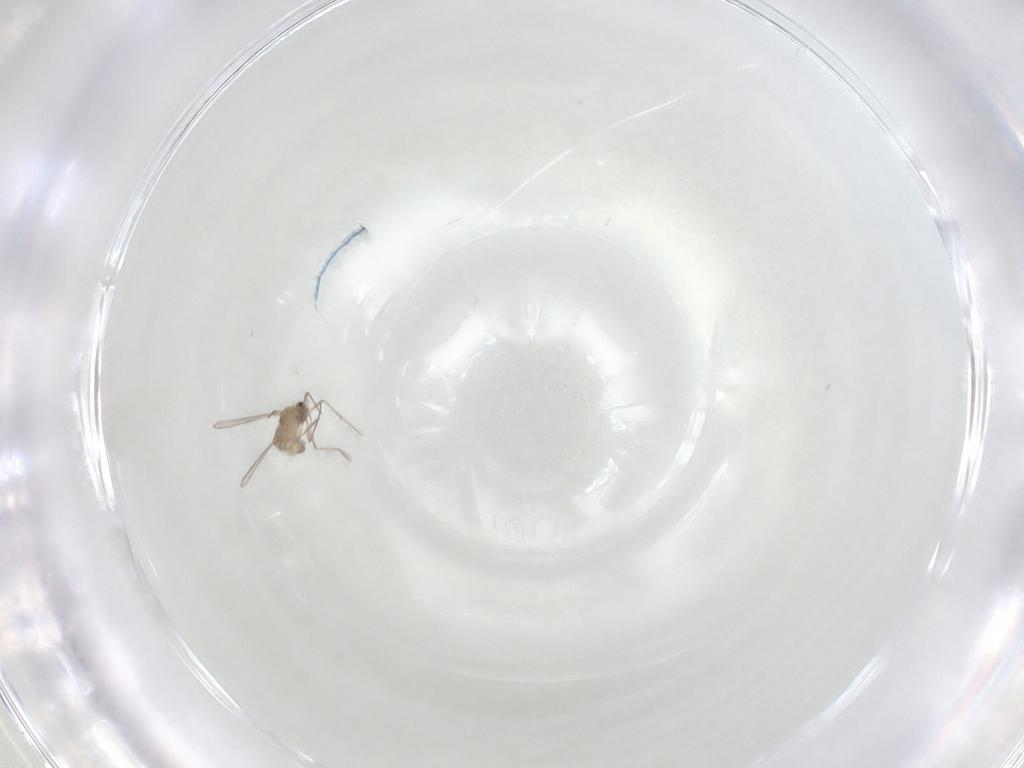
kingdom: Animalia
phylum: Arthropoda
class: Insecta
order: Diptera
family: Chironomidae
